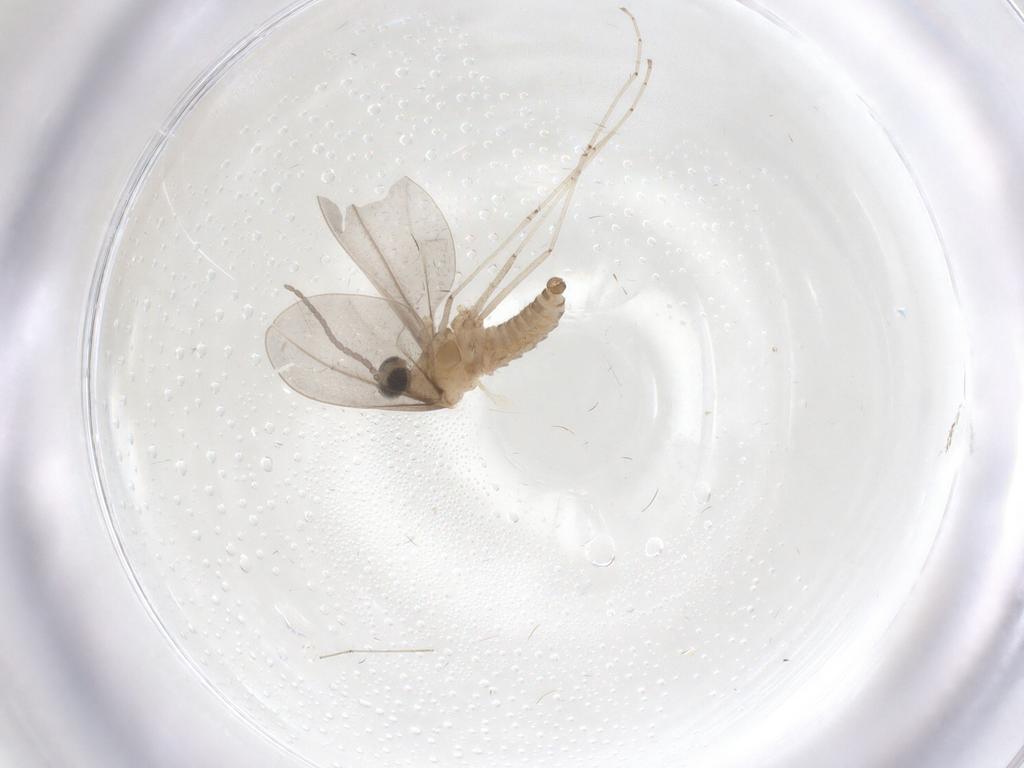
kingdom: Animalia
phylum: Arthropoda
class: Insecta
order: Diptera
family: Cecidomyiidae
